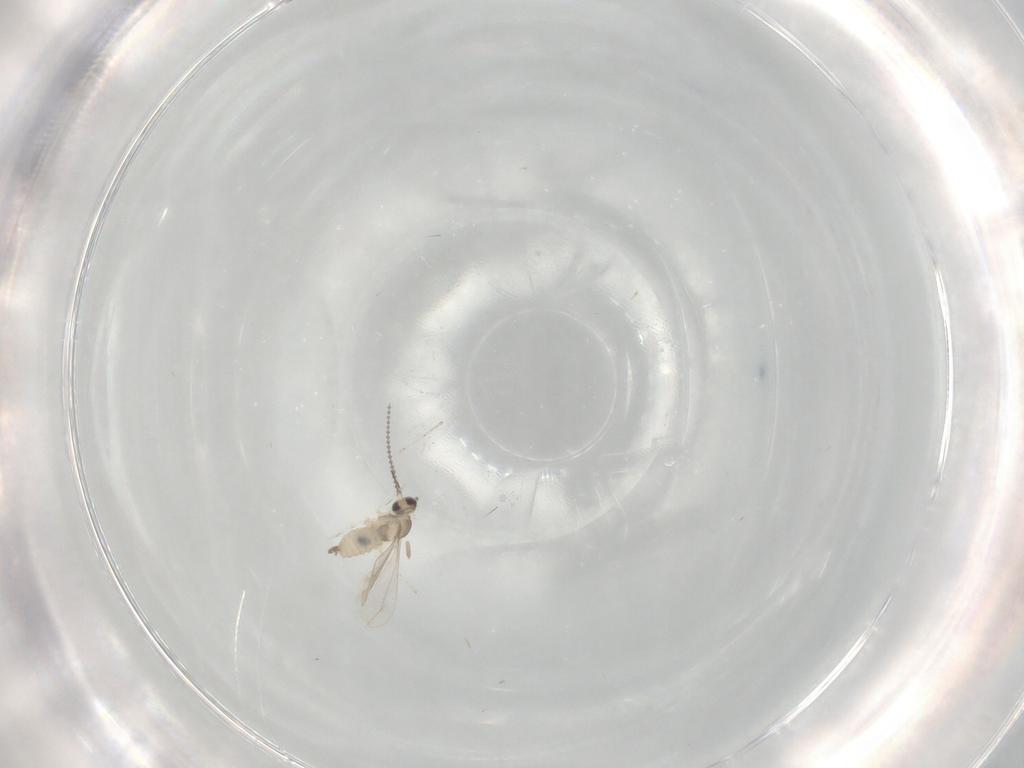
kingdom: Animalia
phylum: Arthropoda
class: Insecta
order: Diptera
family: Cecidomyiidae
